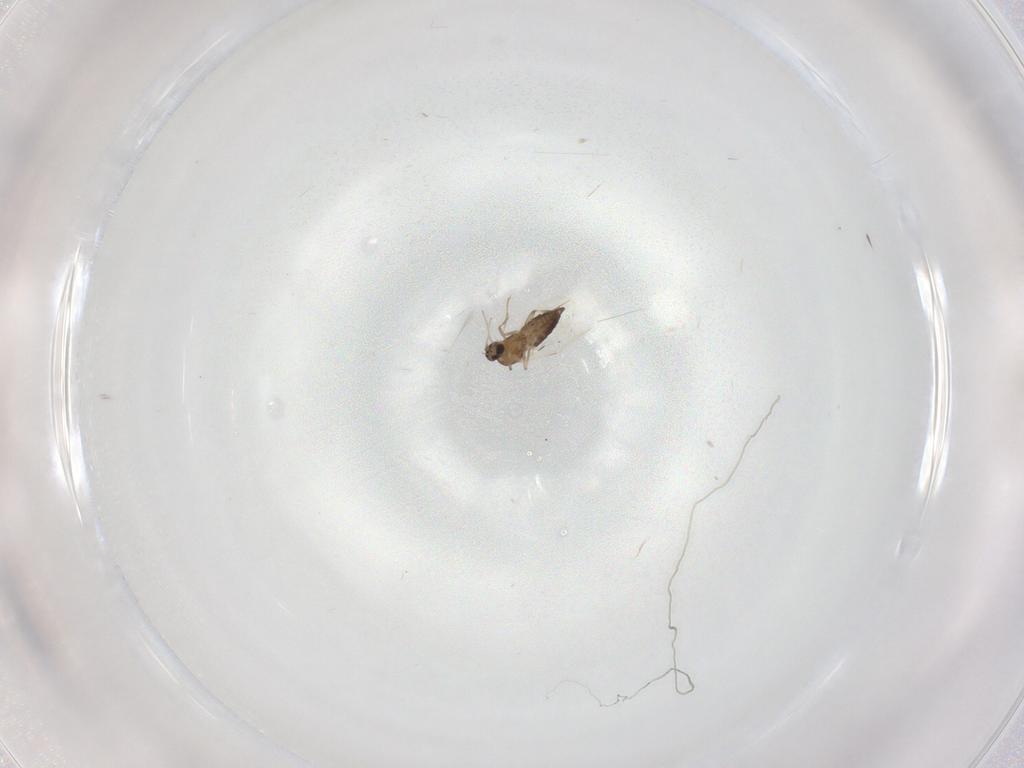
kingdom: Animalia
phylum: Arthropoda
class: Insecta
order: Diptera
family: Ceratopogonidae
